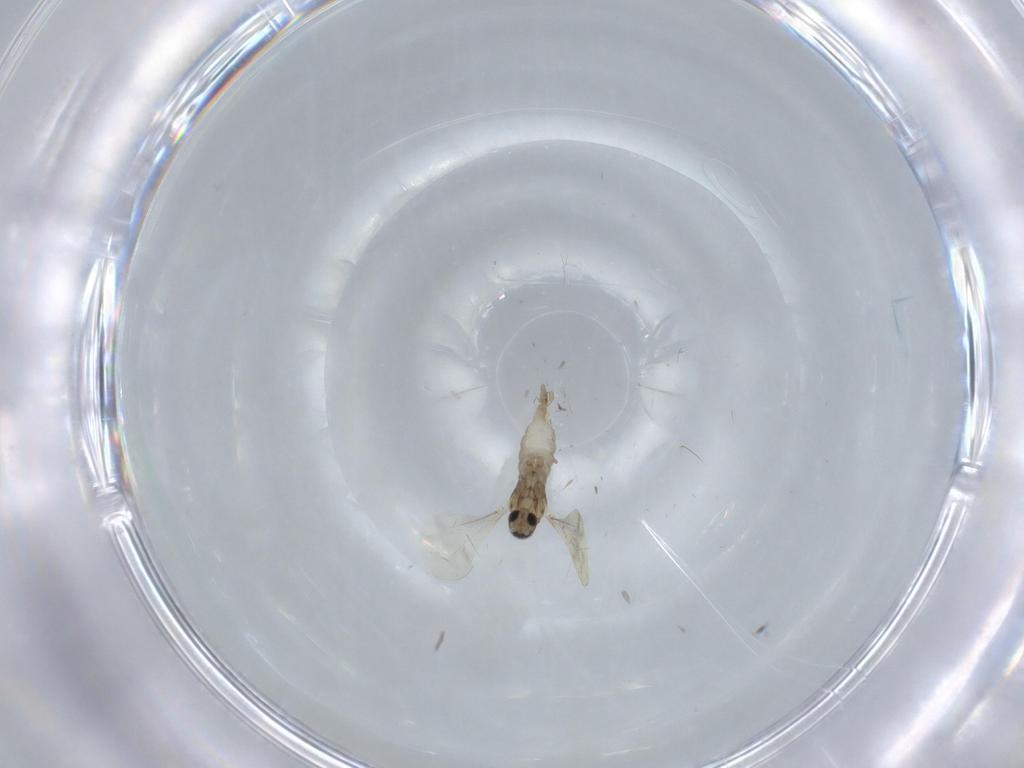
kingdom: Animalia
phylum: Arthropoda
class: Insecta
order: Diptera
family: Cecidomyiidae
